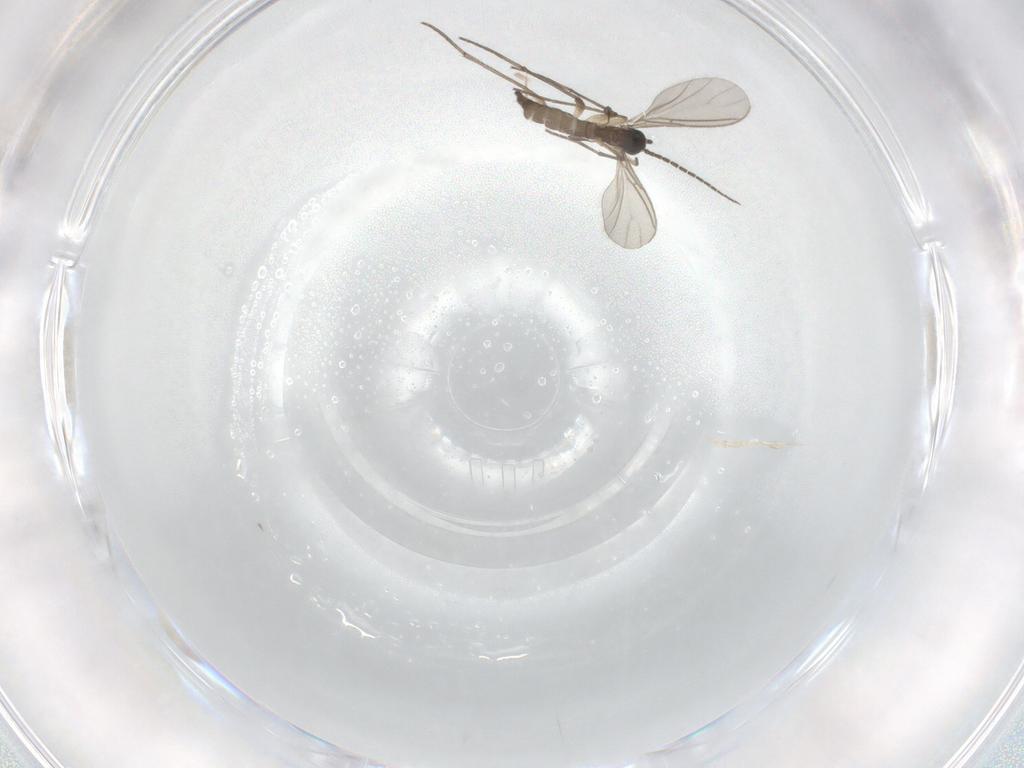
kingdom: Animalia
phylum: Arthropoda
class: Insecta
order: Diptera
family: Sciaridae
